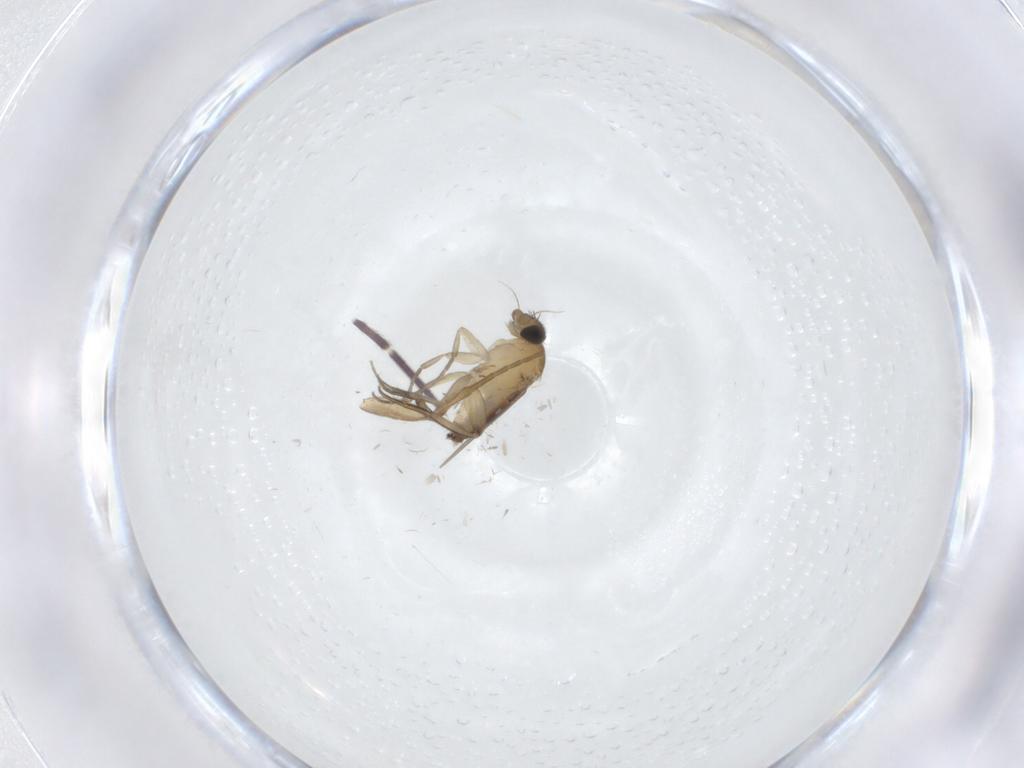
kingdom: Animalia
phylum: Arthropoda
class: Insecta
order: Diptera
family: Phoridae
